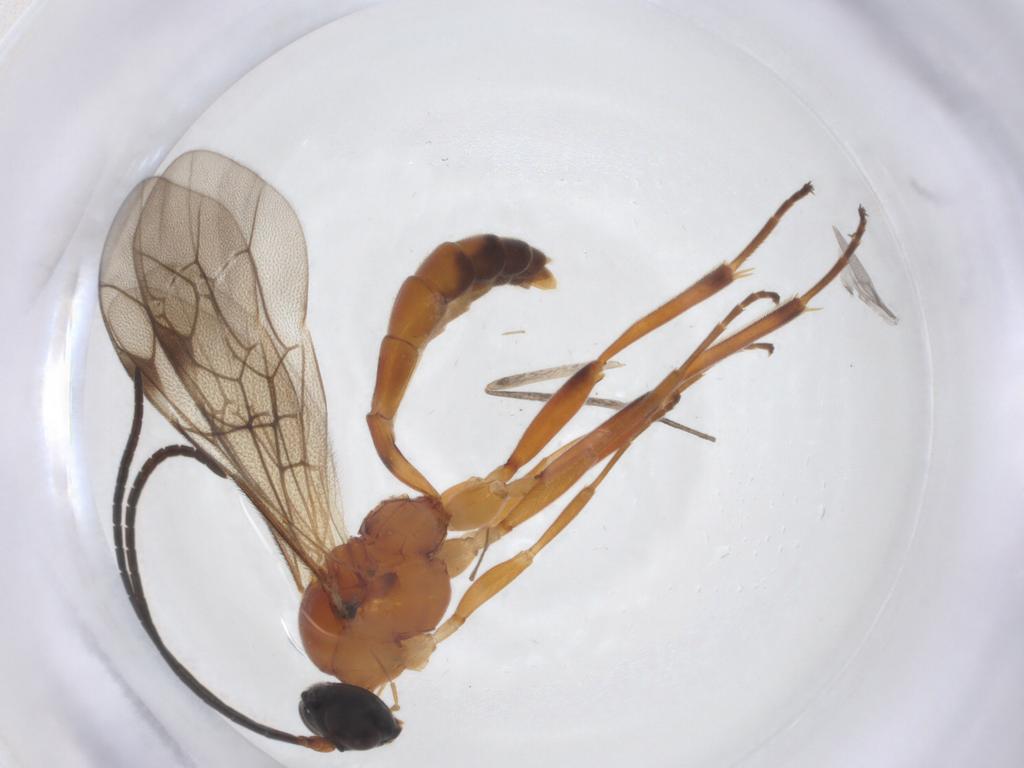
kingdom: Animalia
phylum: Arthropoda
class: Insecta
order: Hymenoptera
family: Ichneumonidae
